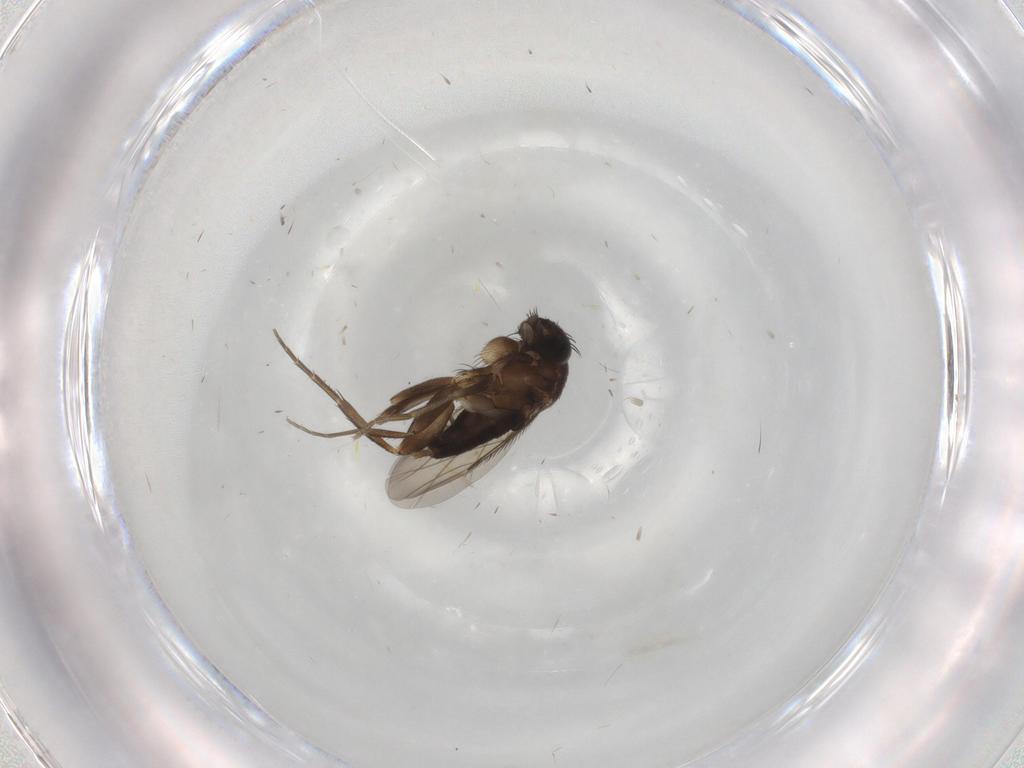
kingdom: Animalia
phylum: Arthropoda
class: Insecta
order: Diptera
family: Phoridae
